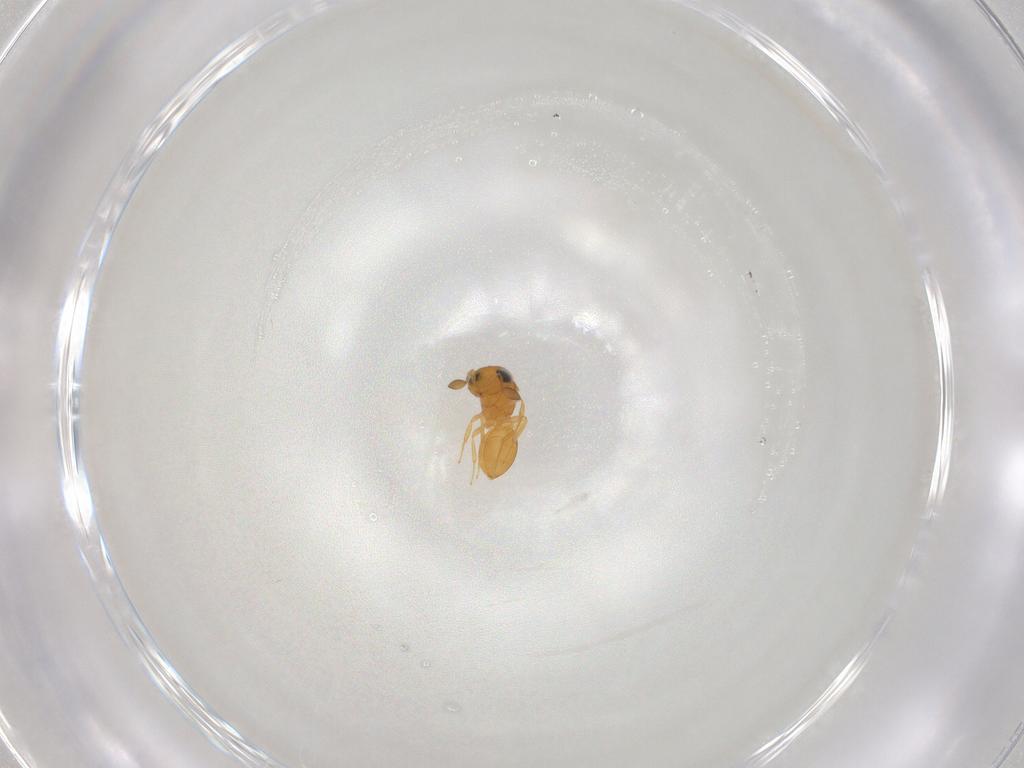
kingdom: Animalia
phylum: Arthropoda
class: Insecta
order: Hymenoptera
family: Scelionidae
